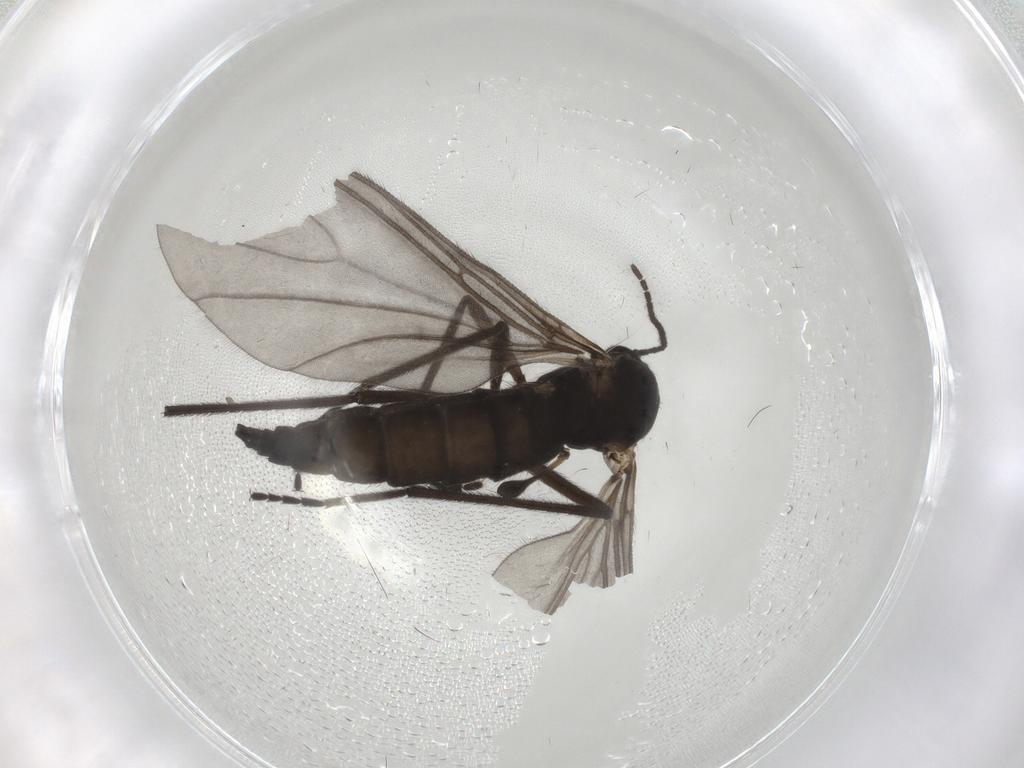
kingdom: Animalia
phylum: Arthropoda
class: Insecta
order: Diptera
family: Sciaridae
